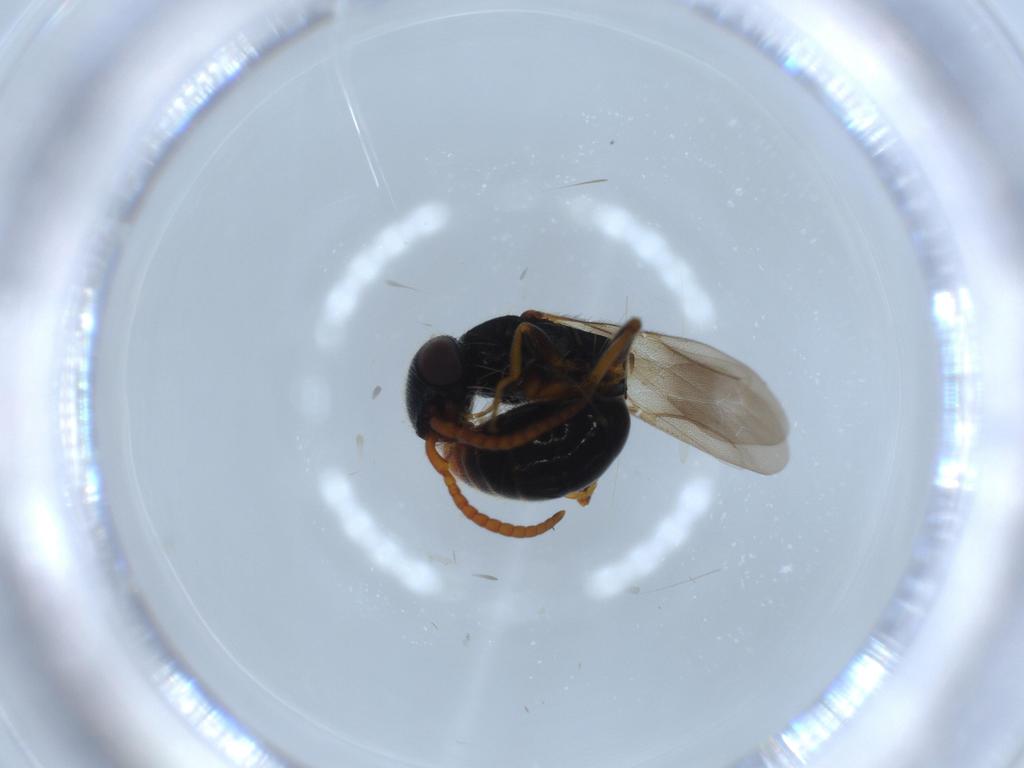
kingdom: Animalia
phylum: Arthropoda
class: Insecta
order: Hymenoptera
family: Bethylidae
